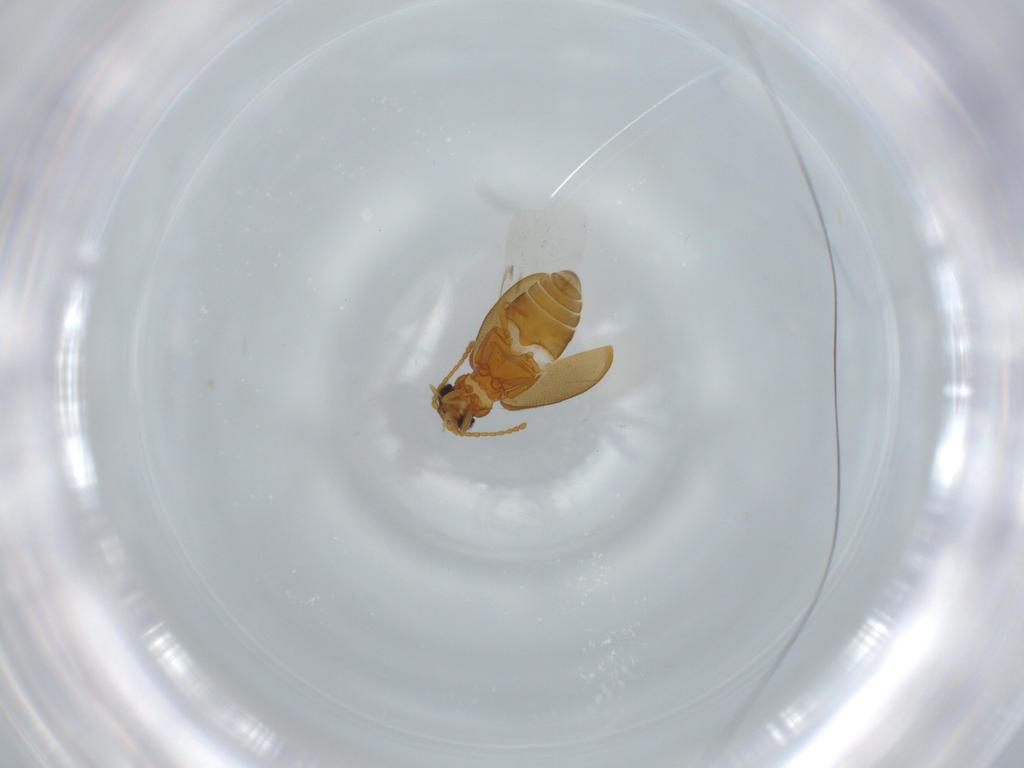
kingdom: Animalia
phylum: Arthropoda
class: Insecta
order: Coleoptera
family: Aderidae
